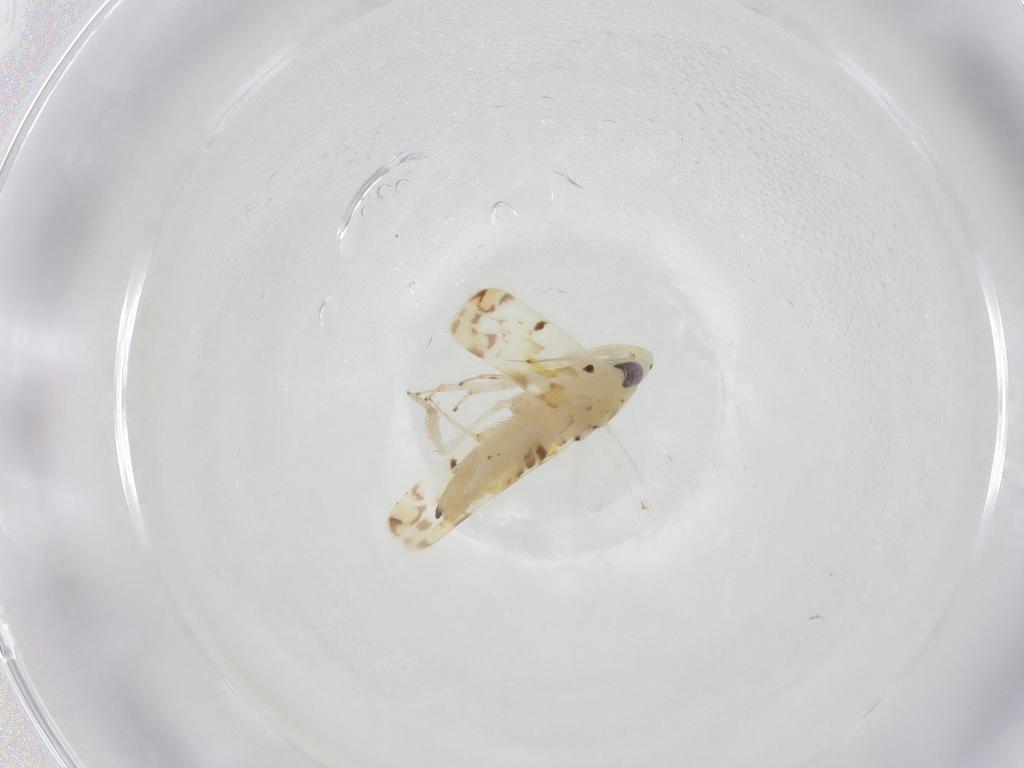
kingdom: Animalia
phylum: Arthropoda
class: Insecta
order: Hemiptera
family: Cicadellidae
